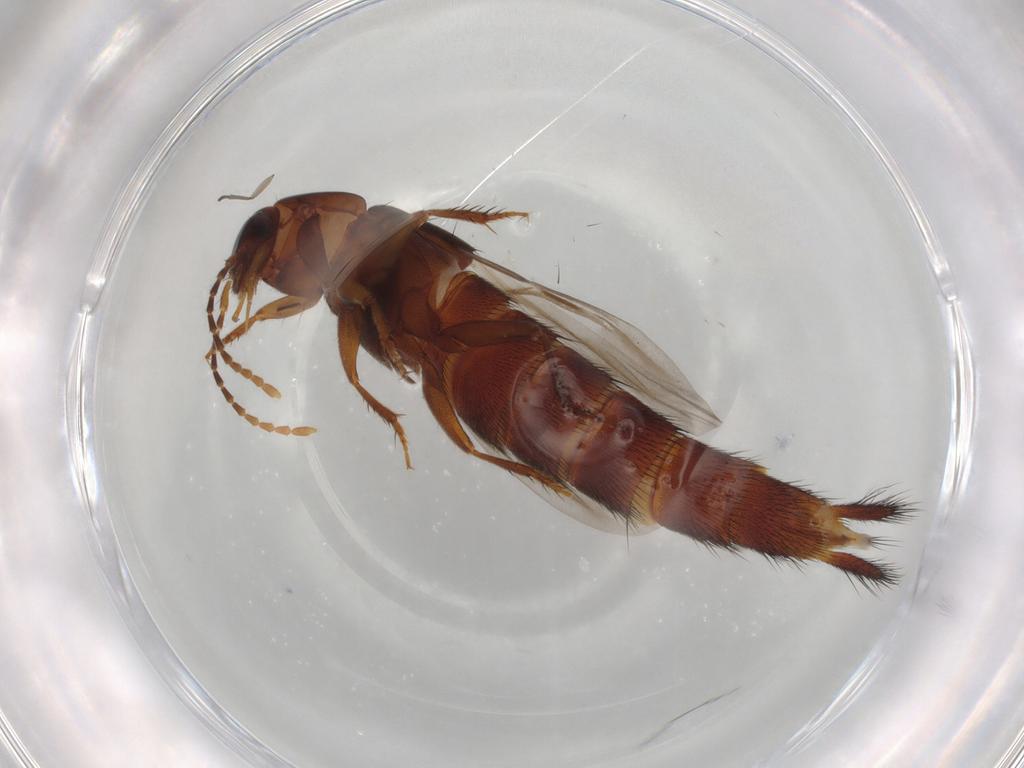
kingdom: Animalia
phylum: Arthropoda
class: Insecta
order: Coleoptera
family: Staphylinidae
